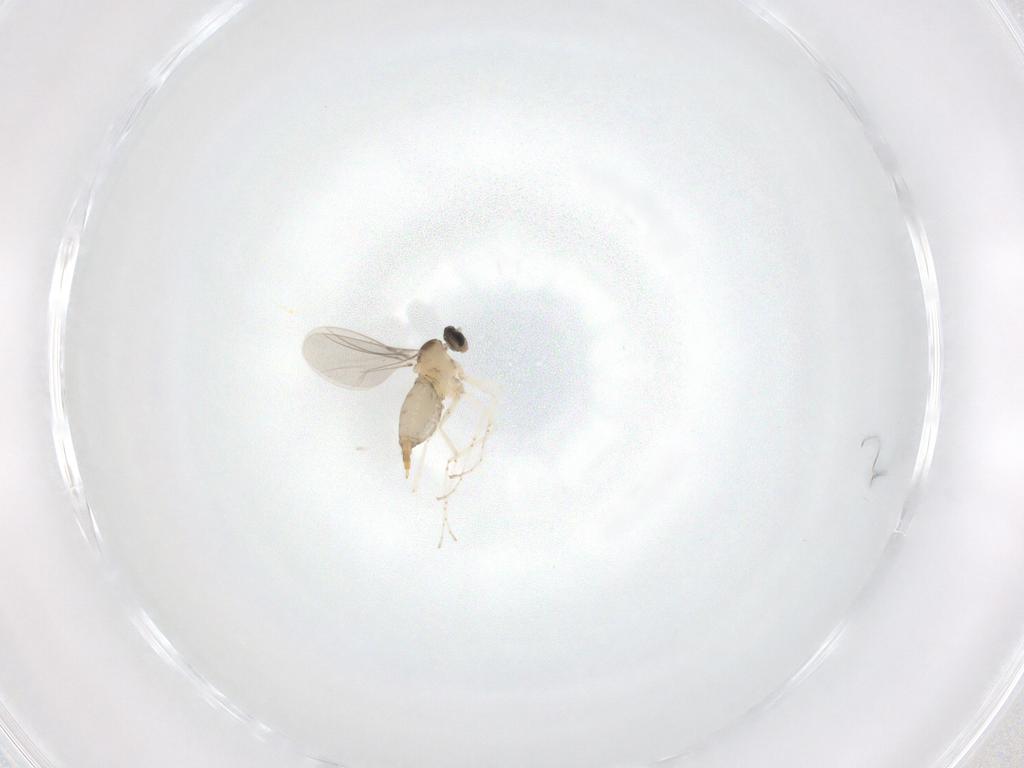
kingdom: Animalia
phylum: Arthropoda
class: Insecta
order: Diptera
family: Cecidomyiidae
